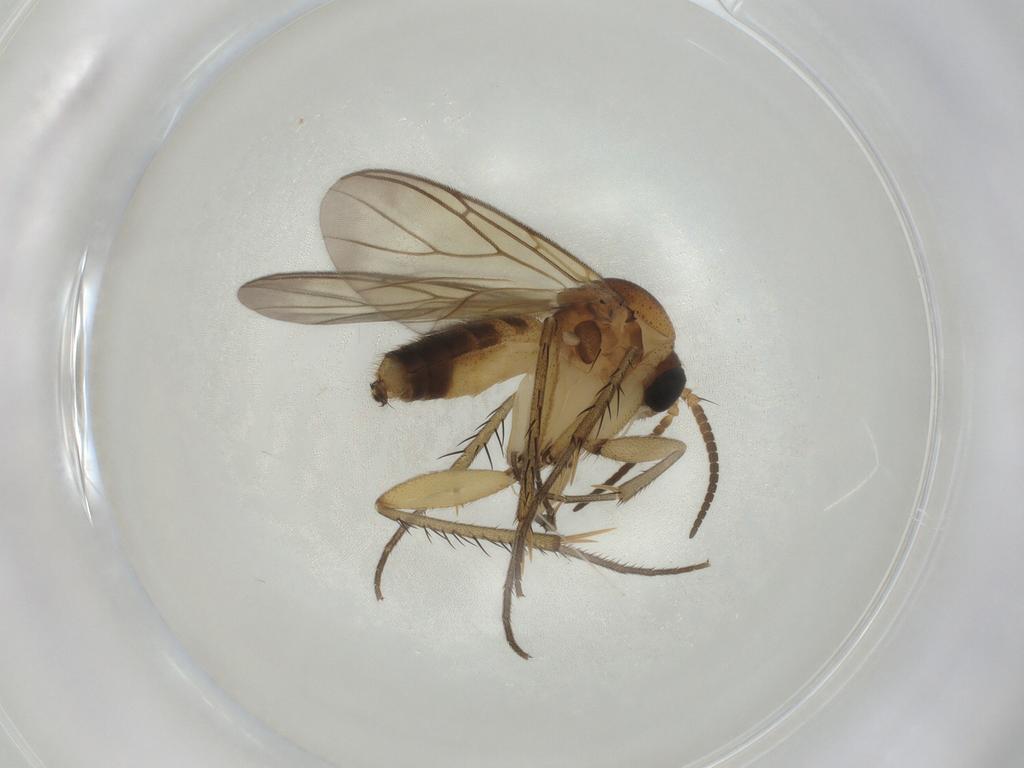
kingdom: Animalia
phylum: Arthropoda
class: Insecta
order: Diptera
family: Mycetophilidae
